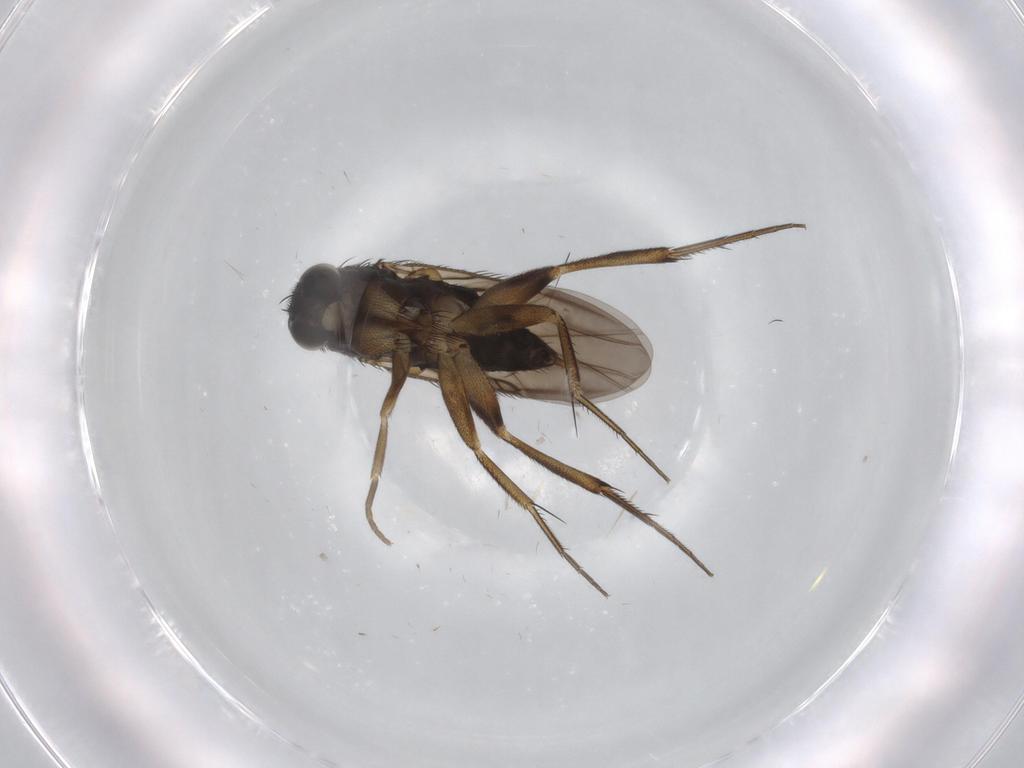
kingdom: Animalia
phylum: Arthropoda
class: Insecta
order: Diptera
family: Phoridae
